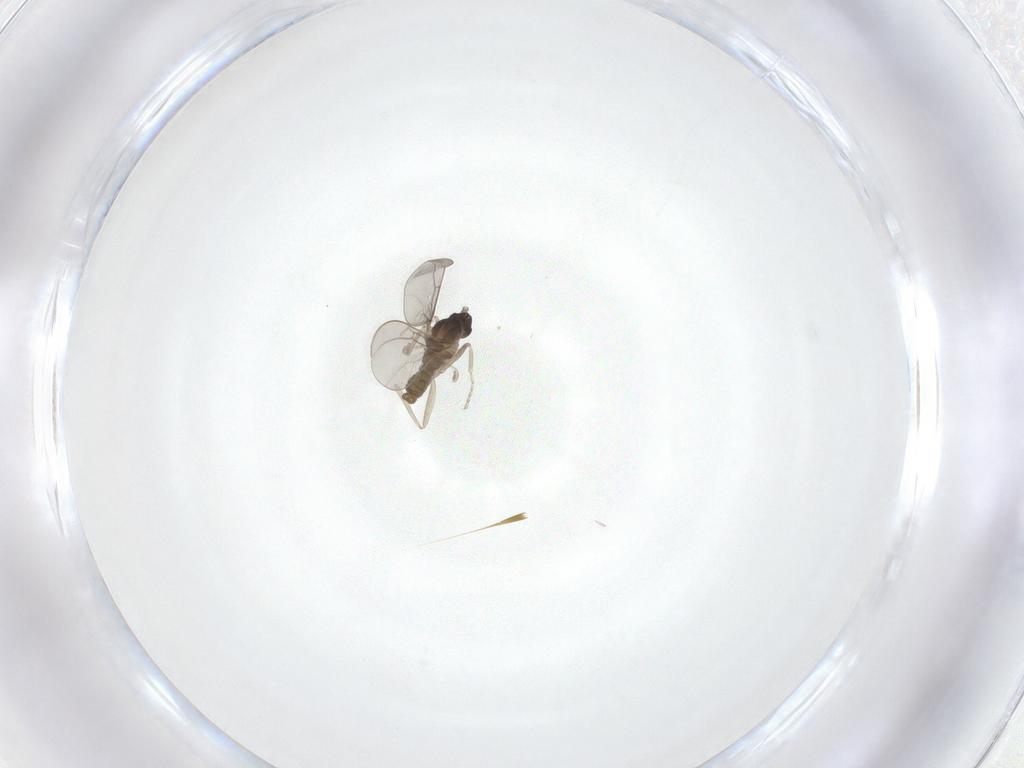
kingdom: Animalia
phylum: Arthropoda
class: Insecta
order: Diptera
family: Cecidomyiidae
